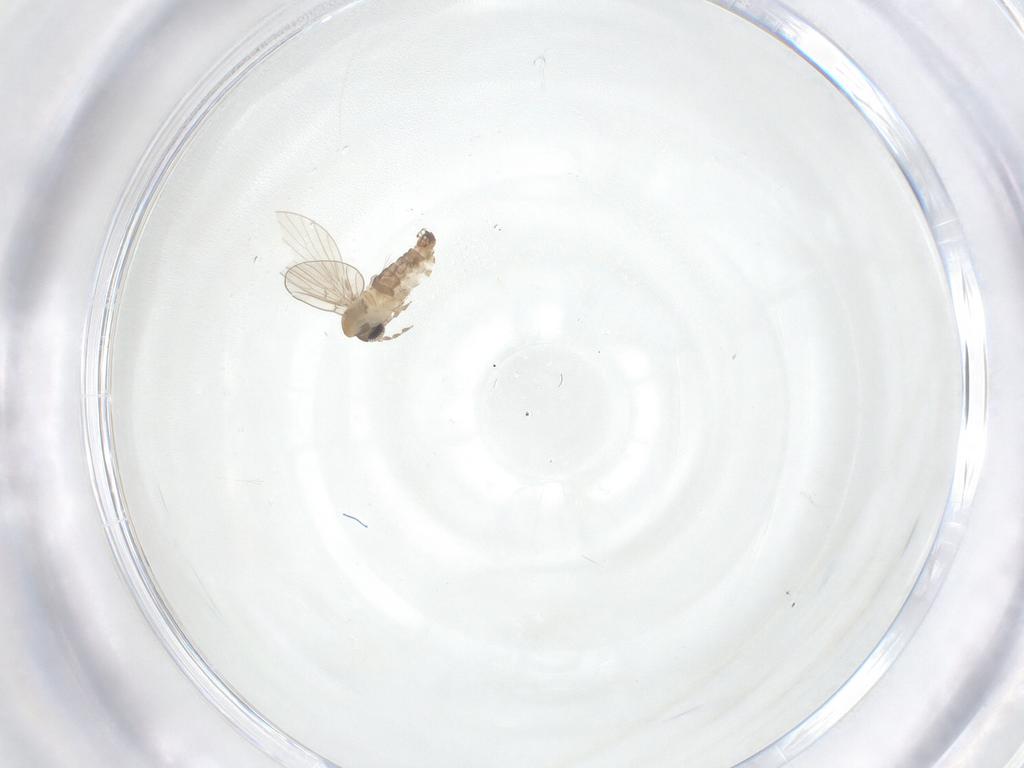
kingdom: Animalia
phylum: Arthropoda
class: Insecta
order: Diptera
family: Psychodidae
